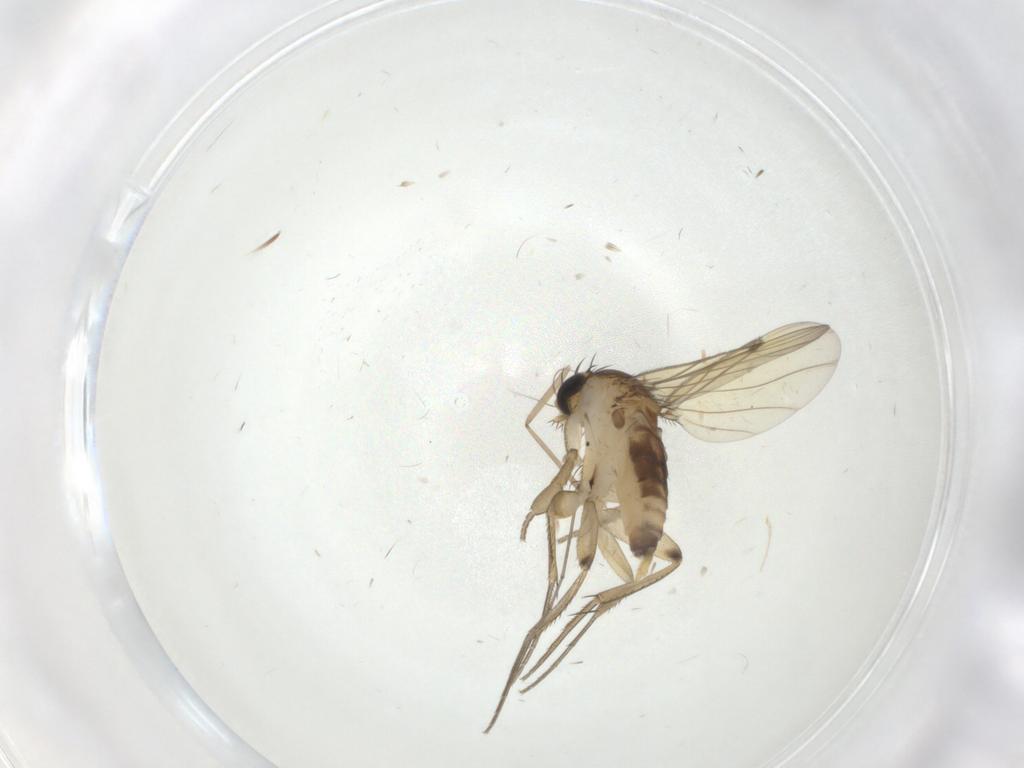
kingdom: Animalia
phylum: Arthropoda
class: Insecta
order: Diptera
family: Phoridae
